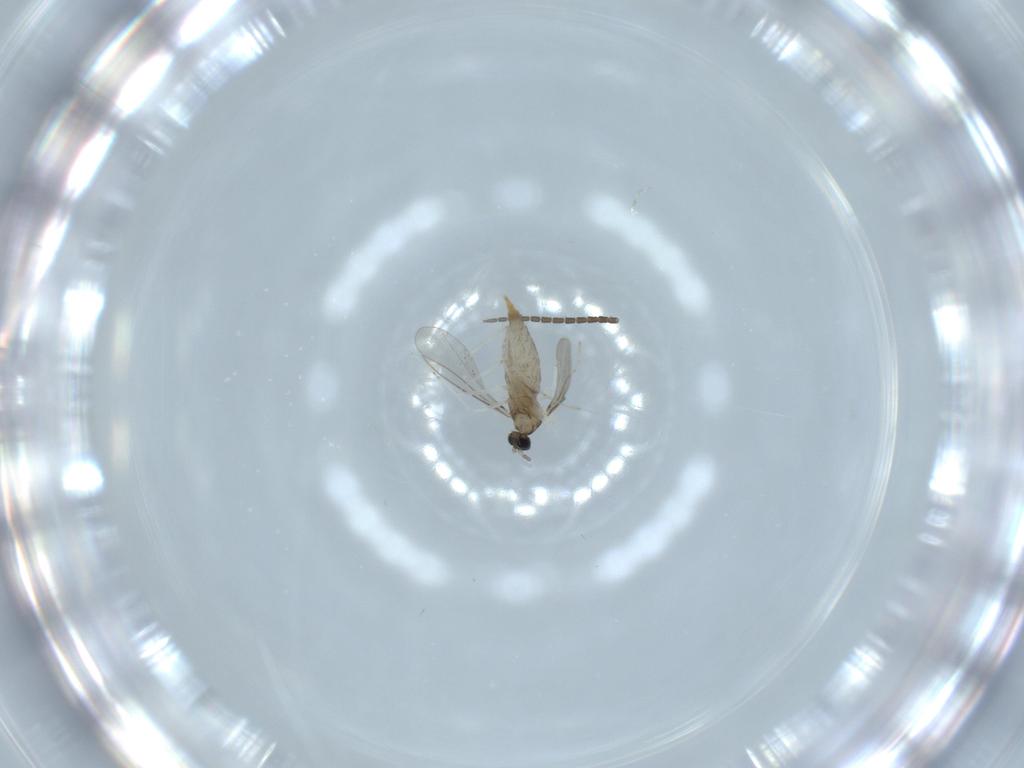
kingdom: Animalia
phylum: Arthropoda
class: Insecta
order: Diptera
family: Cecidomyiidae
